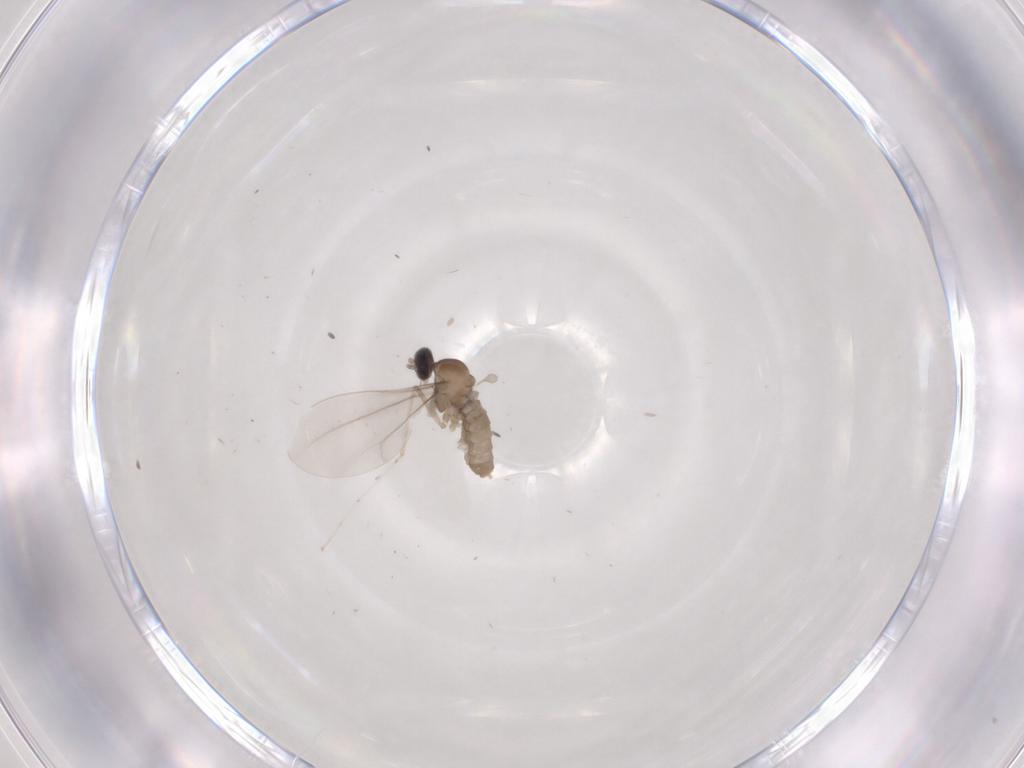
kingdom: Animalia
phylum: Arthropoda
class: Insecta
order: Diptera
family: Cecidomyiidae
